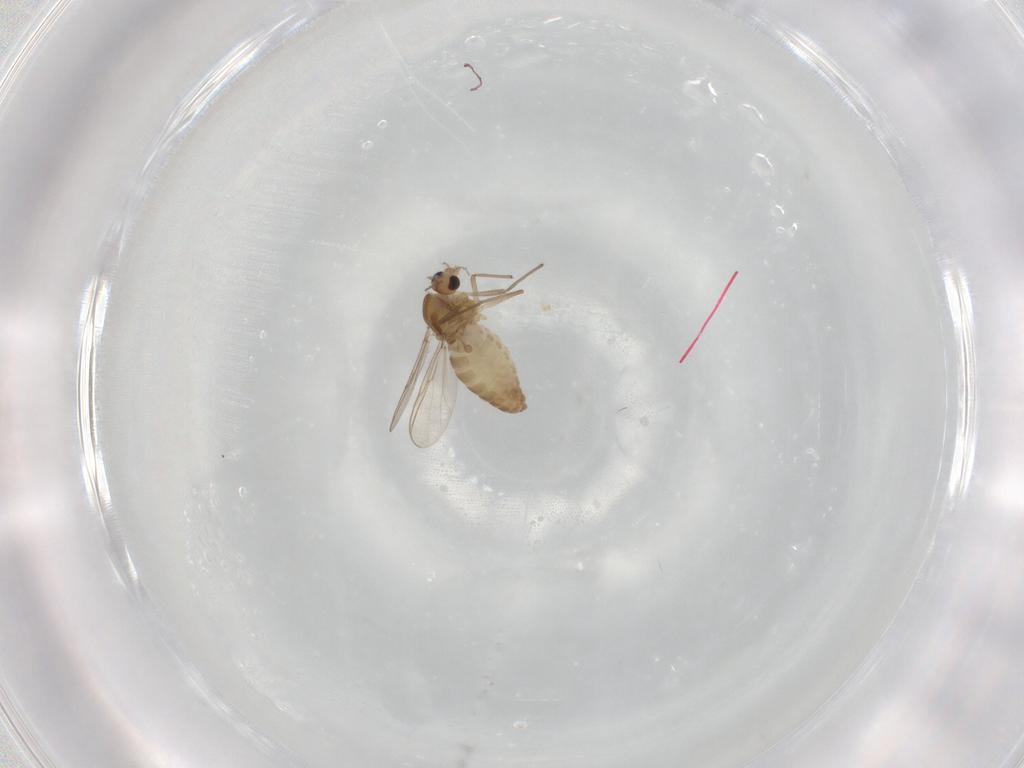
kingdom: Animalia
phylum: Arthropoda
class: Insecta
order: Diptera
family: Chironomidae
